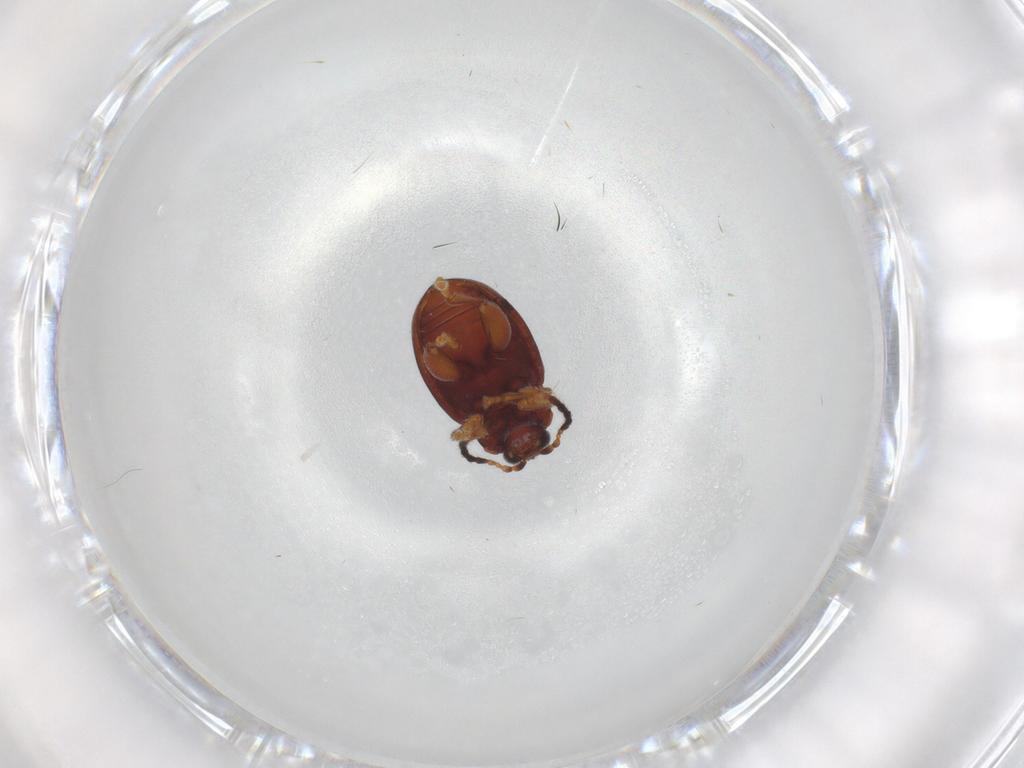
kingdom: Animalia
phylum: Arthropoda
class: Insecta
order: Coleoptera
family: Chrysomelidae
